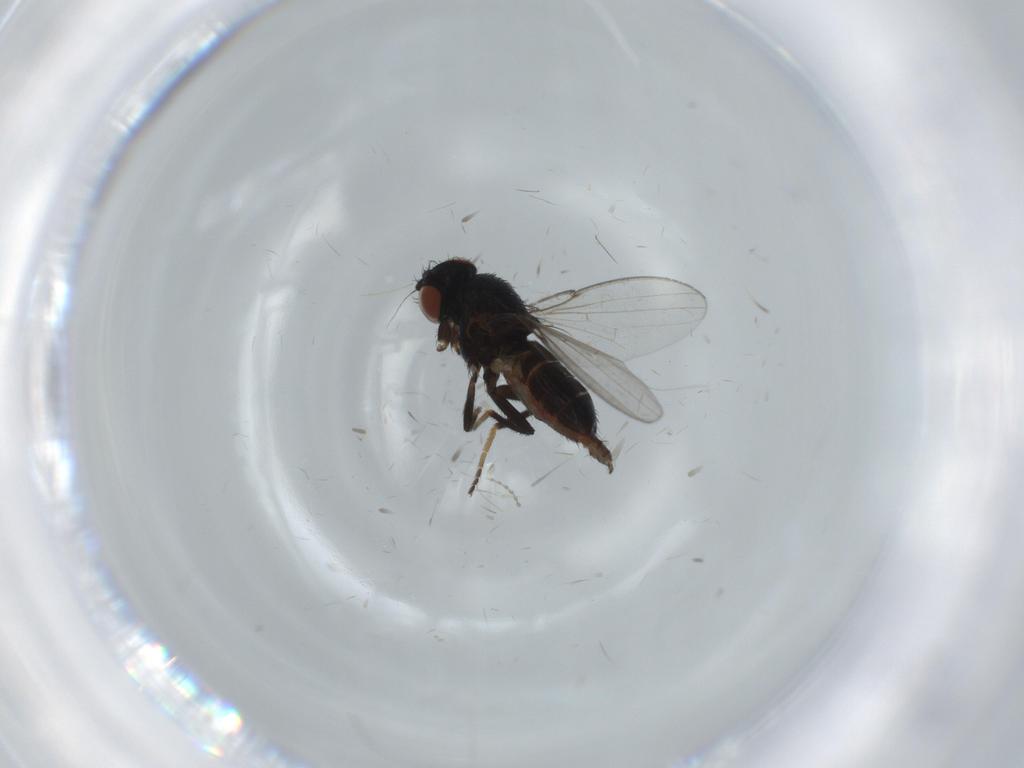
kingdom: Animalia
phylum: Arthropoda
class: Insecta
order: Diptera
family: Milichiidae
